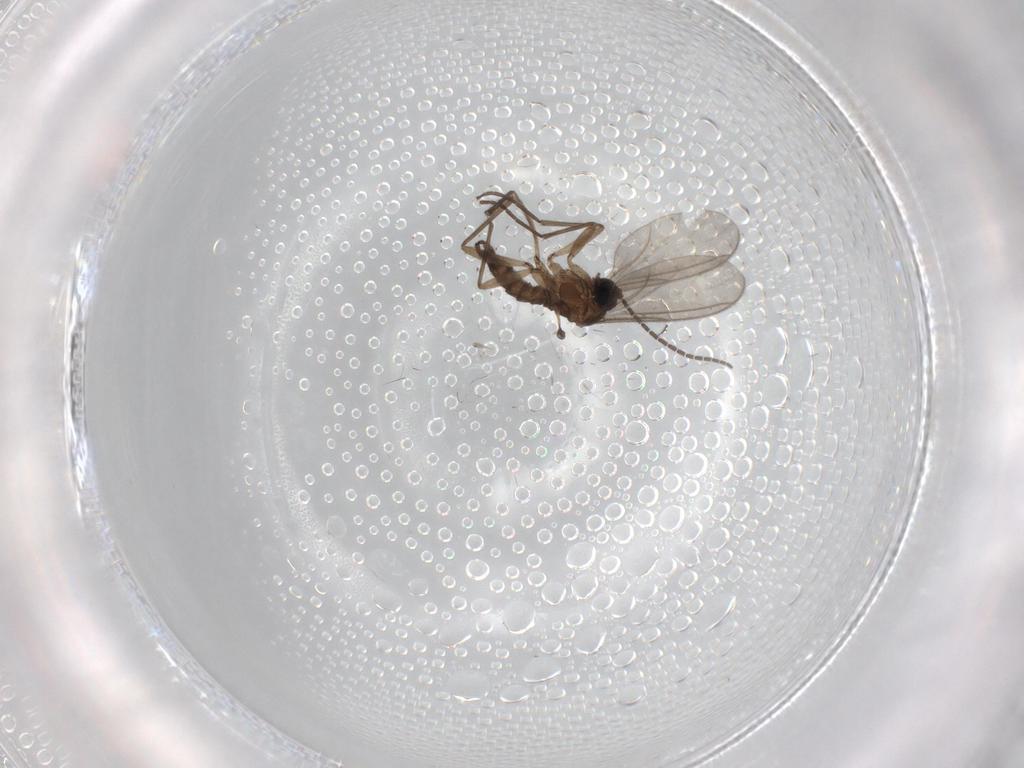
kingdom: Animalia
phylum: Arthropoda
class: Insecta
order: Diptera
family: Sciaridae
